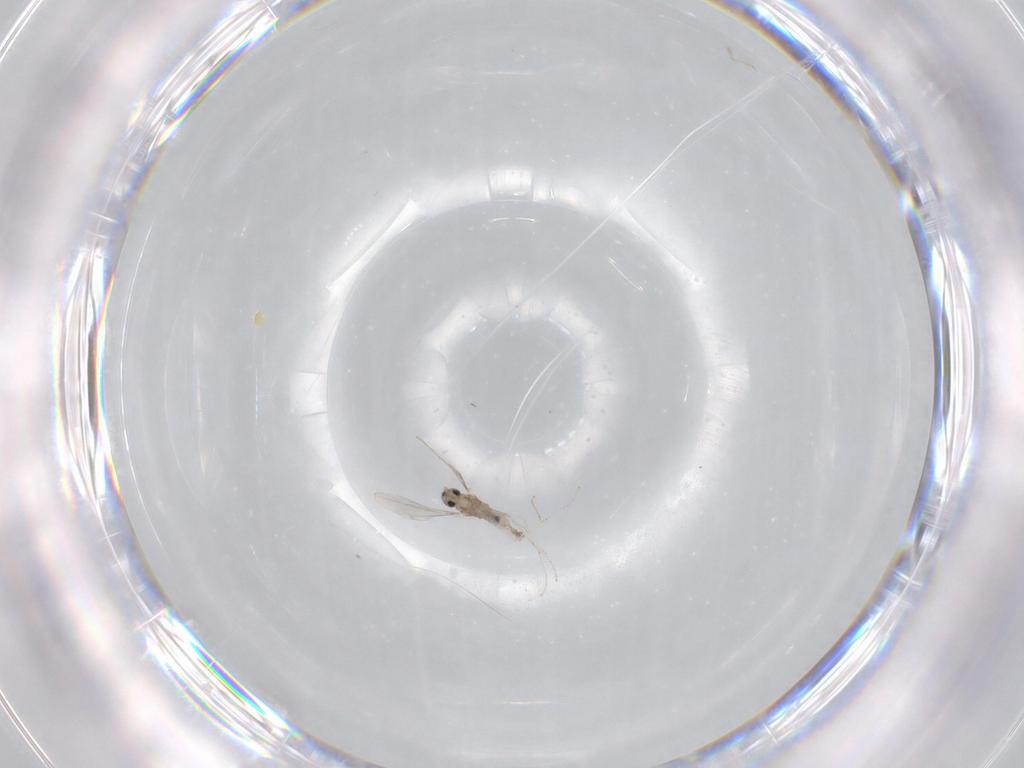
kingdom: Animalia
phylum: Arthropoda
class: Insecta
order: Diptera
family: Cecidomyiidae
